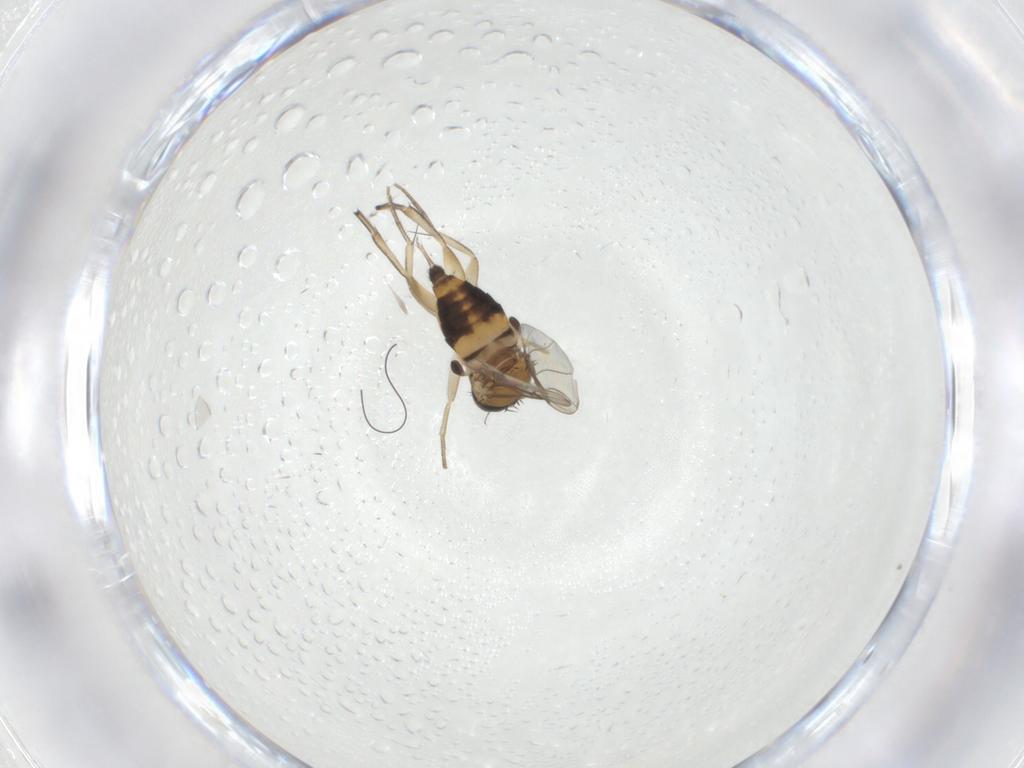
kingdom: Animalia
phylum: Arthropoda
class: Insecta
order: Diptera
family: Phoridae
